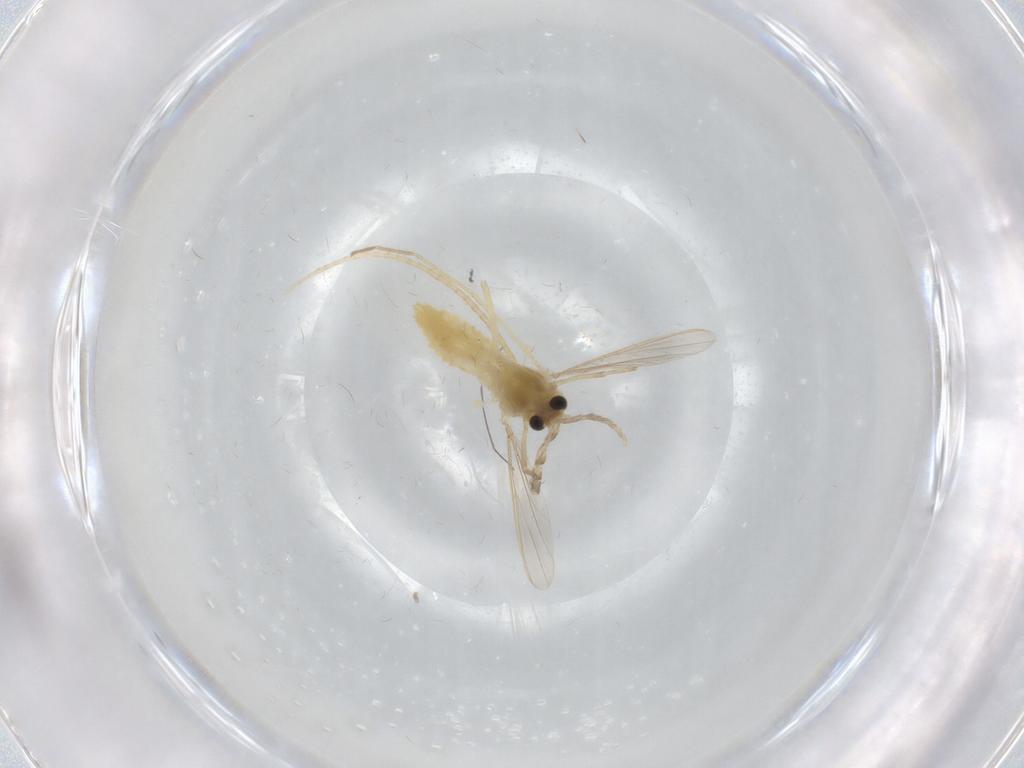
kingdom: Animalia
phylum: Arthropoda
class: Insecta
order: Diptera
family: Chironomidae
